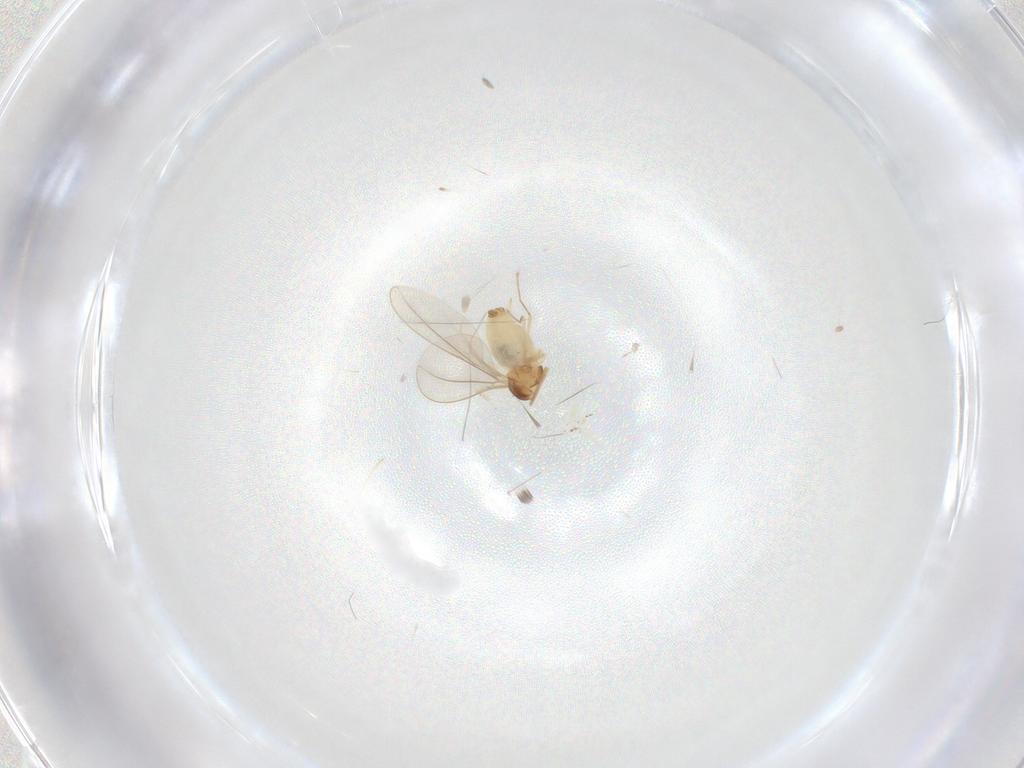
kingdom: Animalia
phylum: Arthropoda
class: Insecta
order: Diptera
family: Cecidomyiidae
